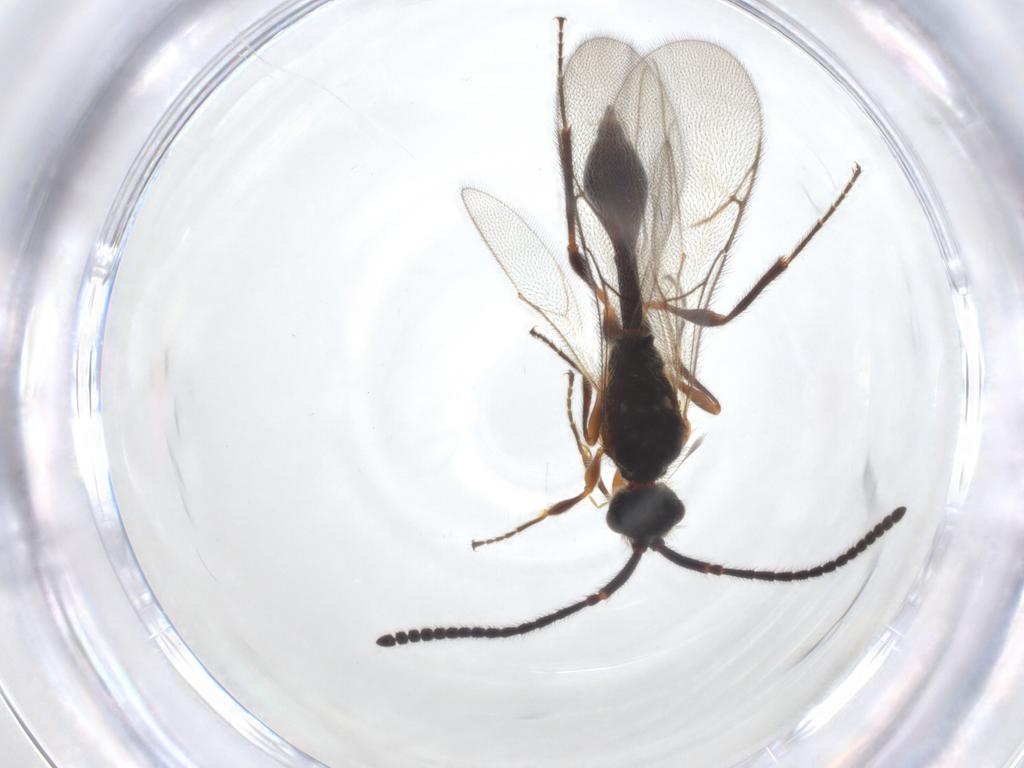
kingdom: Animalia
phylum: Arthropoda
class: Insecta
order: Hymenoptera
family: Diapriidae
